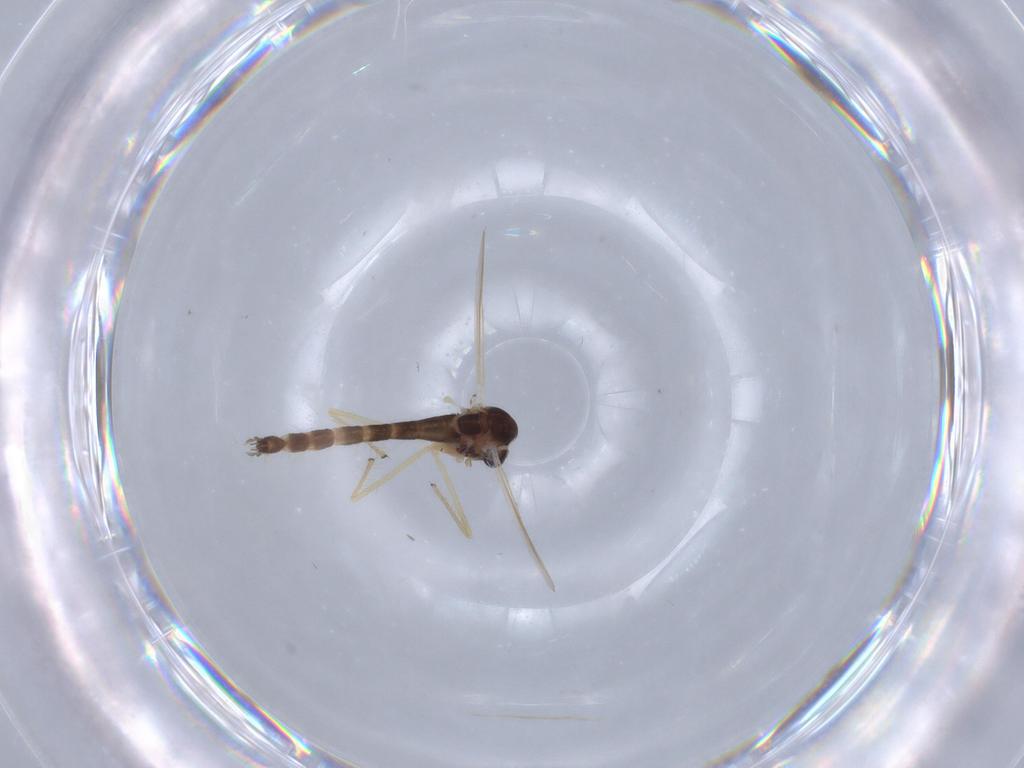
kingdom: Animalia
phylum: Arthropoda
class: Insecta
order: Diptera
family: Chironomidae
